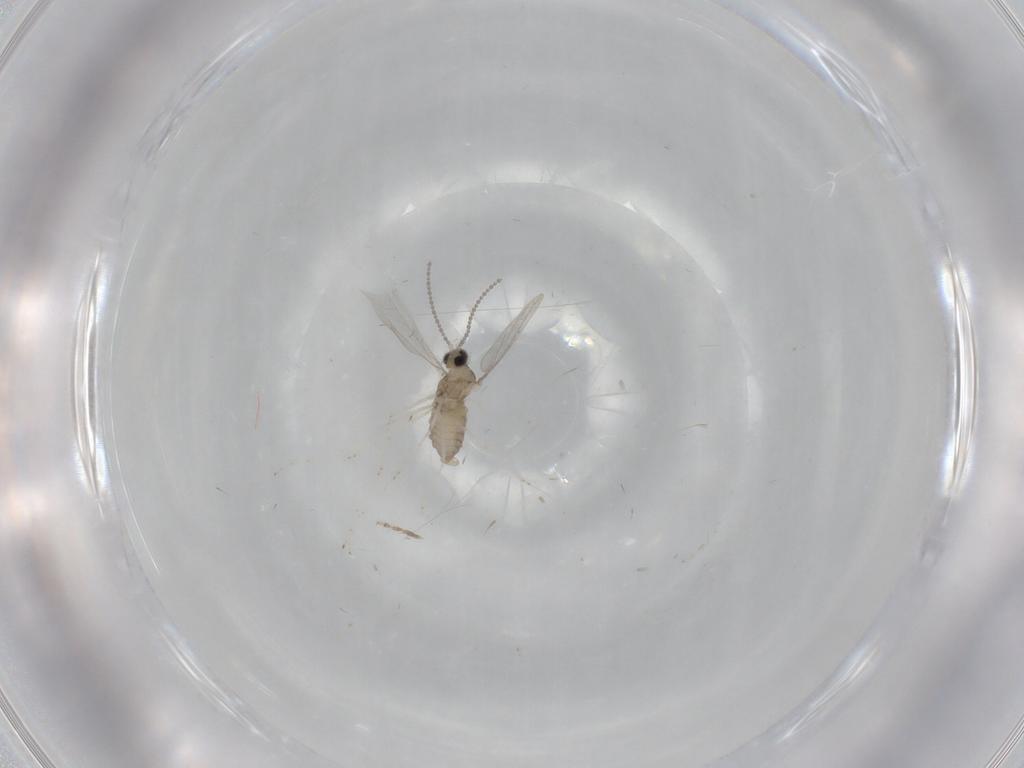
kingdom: Animalia
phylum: Arthropoda
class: Insecta
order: Diptera
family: Cecidomyiidae
